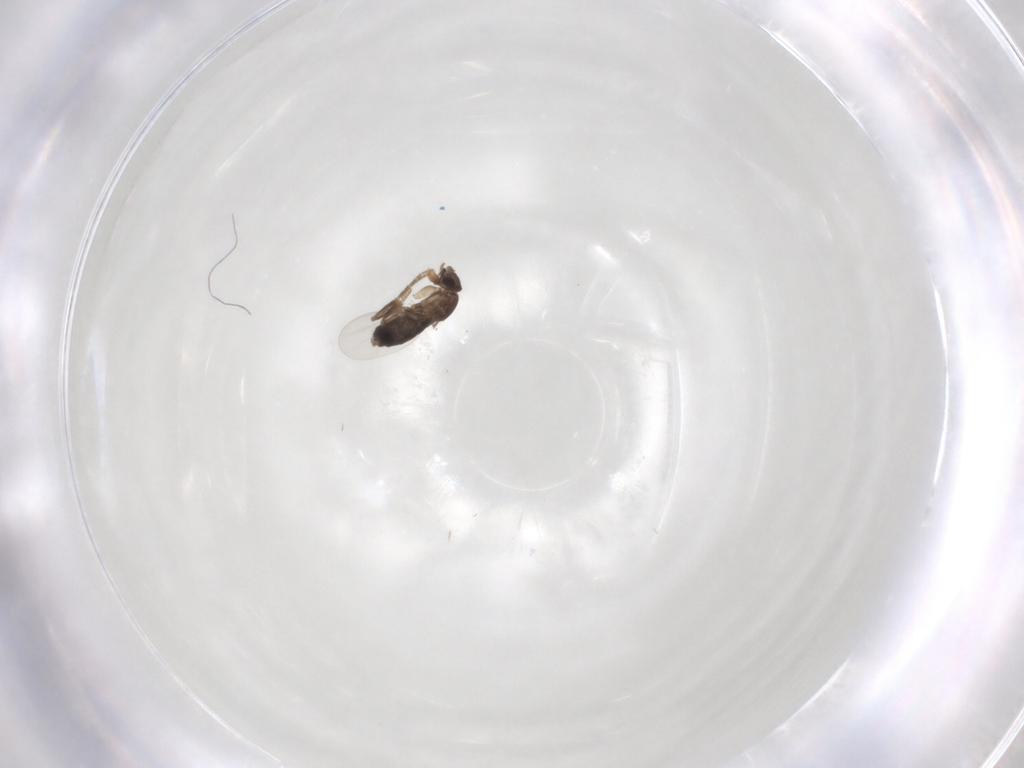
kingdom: Animalia
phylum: Arthropoda
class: Insecta
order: Diptera
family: Phoridae
